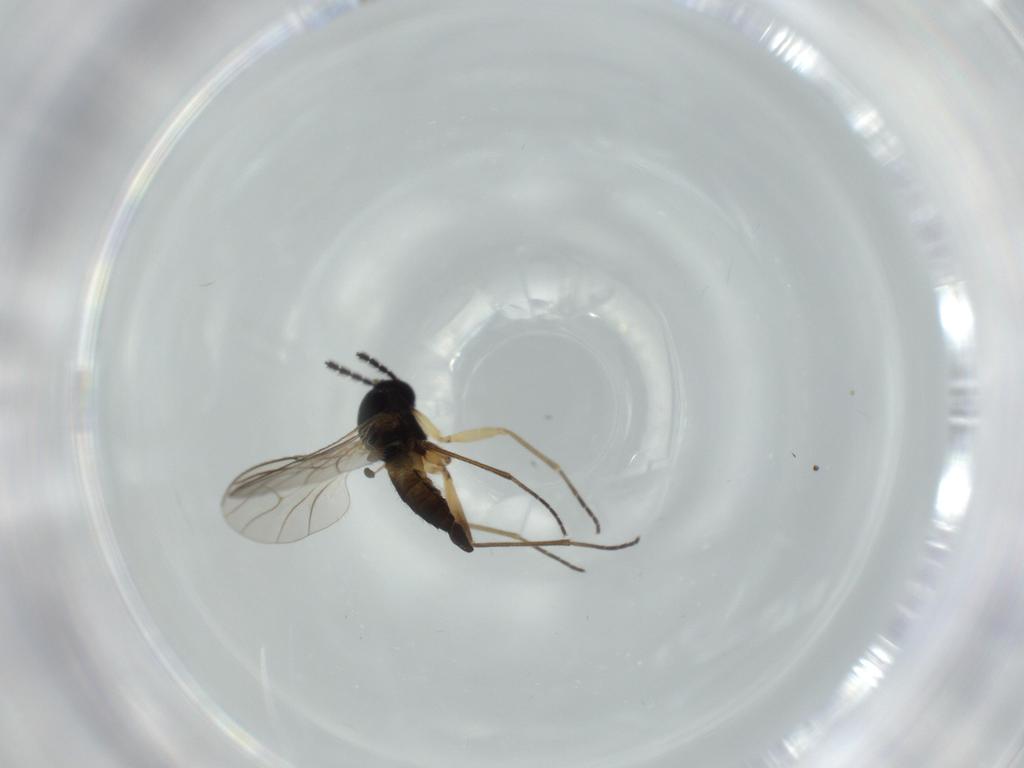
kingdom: Animalia
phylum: Arthropoda
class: Insecta
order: Diptera
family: Sciaridae
